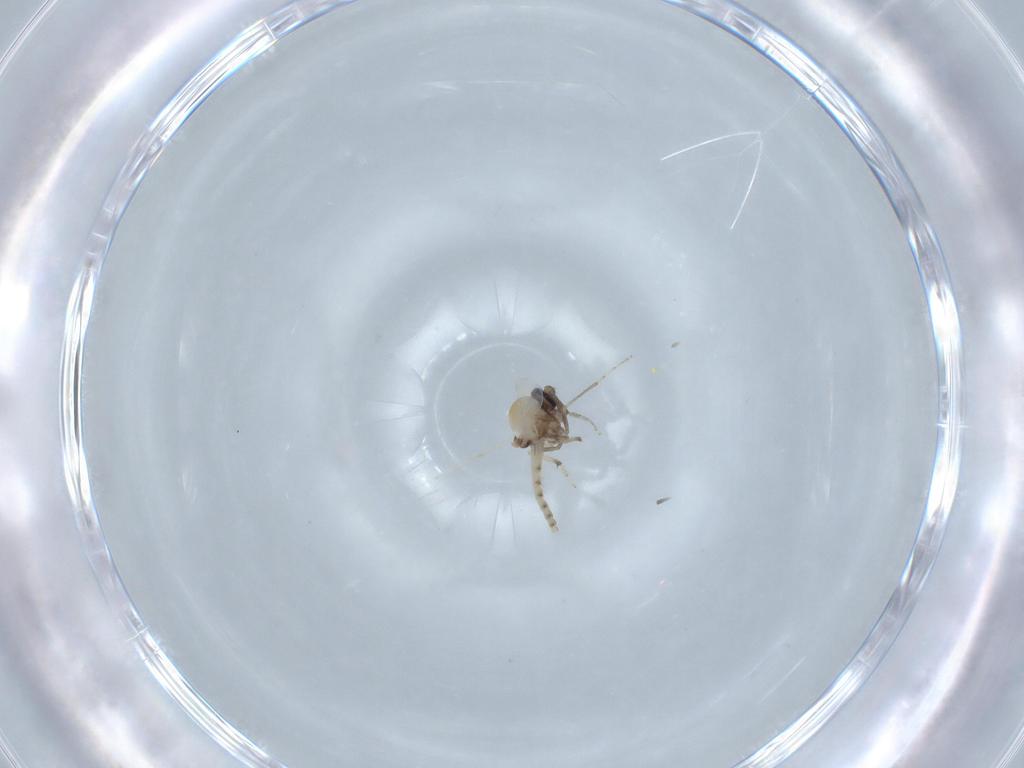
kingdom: Animalia
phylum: Arthropoda
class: Insecta
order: Diptera
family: Ceratopogonidae
